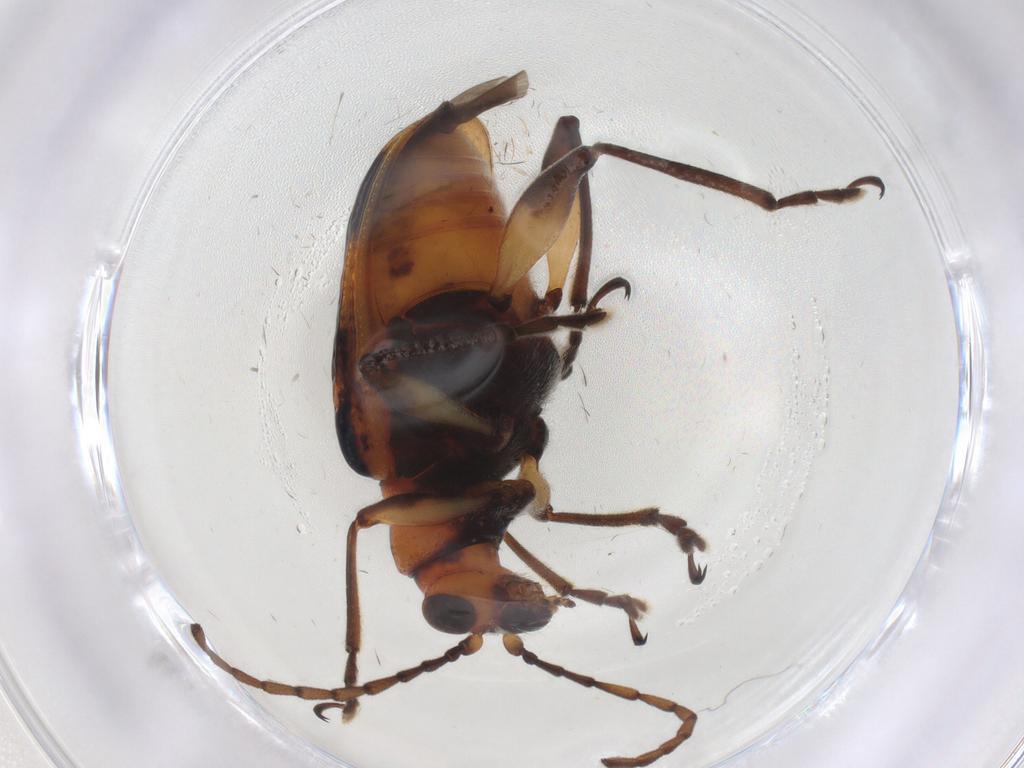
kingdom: Animalia
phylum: Arthropoda
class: Insecta
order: Coleoptera
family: Chrysomelidae
